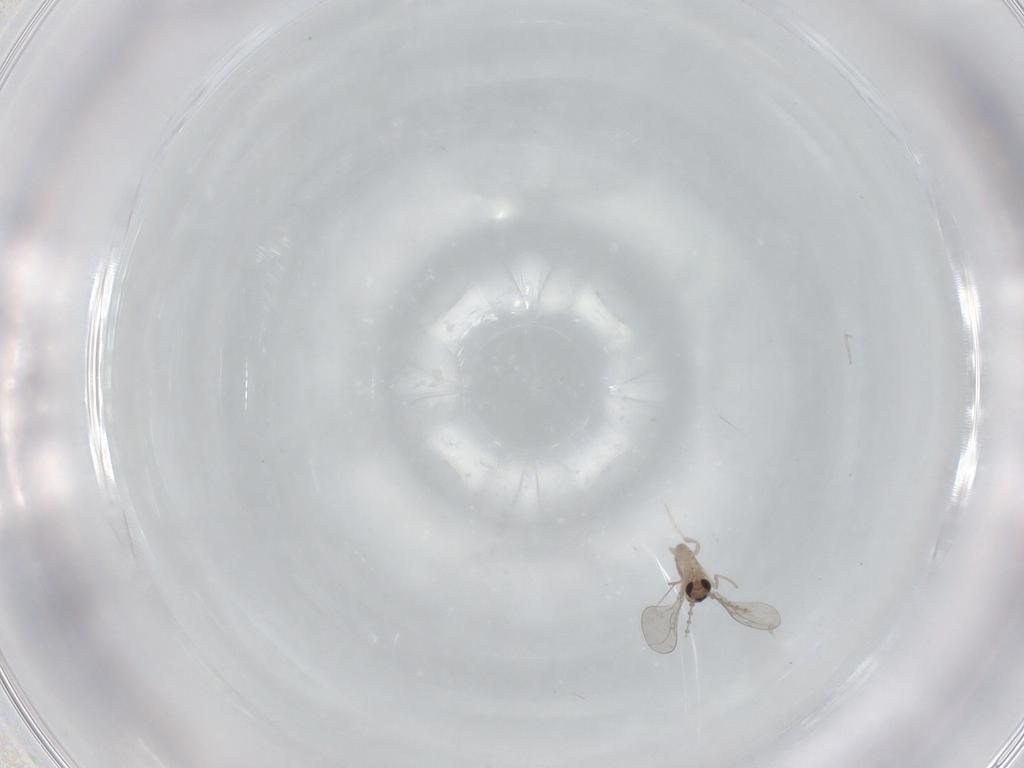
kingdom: Animalia
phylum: Arthropoda
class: Insecta
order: Diptera
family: Cecidomyiidae
